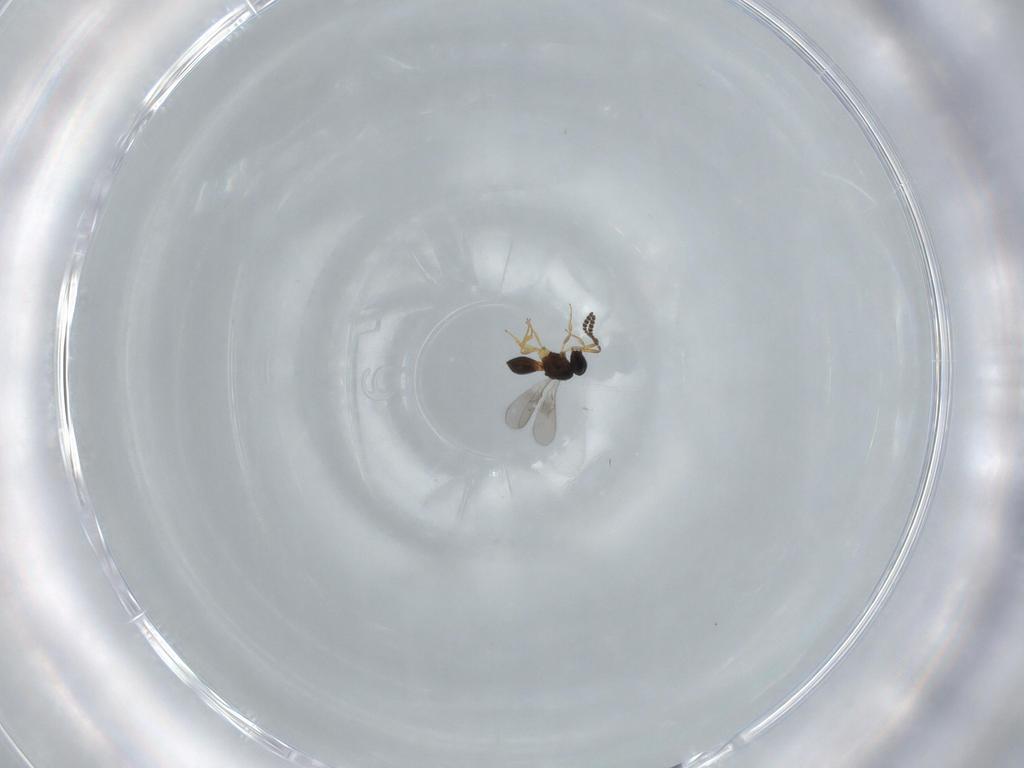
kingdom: Animalia
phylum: Arthropoda
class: Insecta
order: Hymenoptera
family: Scelionidae
